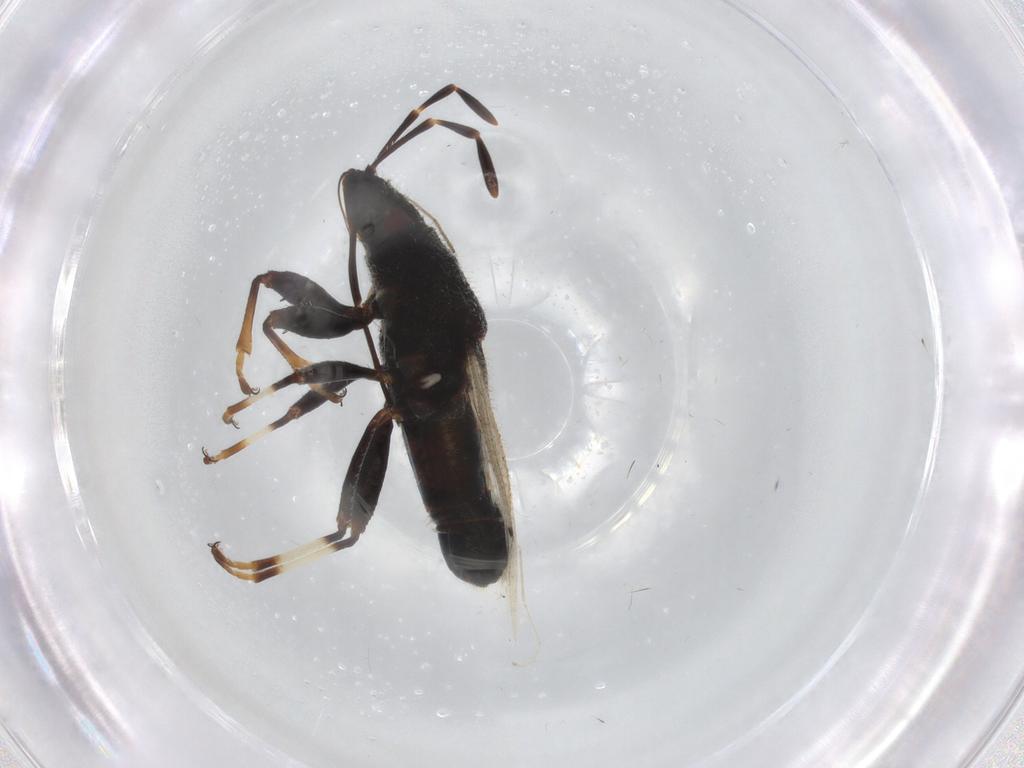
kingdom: Animalia
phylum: Arthropoda
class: Insecta
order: Hemiptera
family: Oxycarenidae
